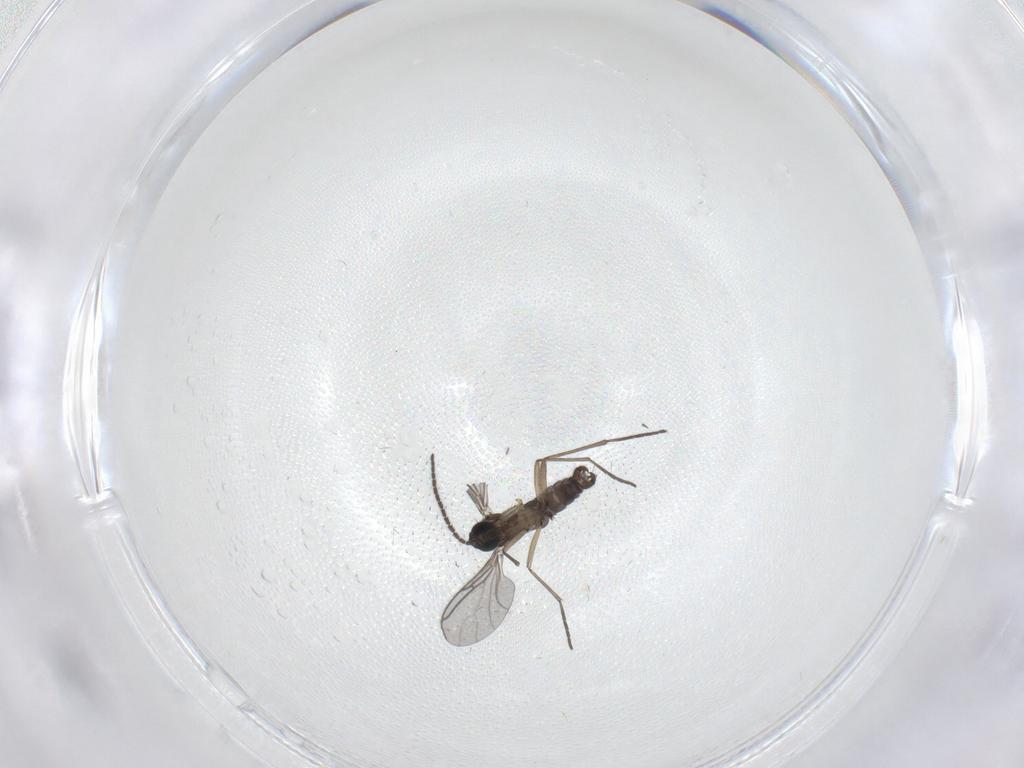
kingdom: Animalia
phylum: Arthropoda
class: Insecta
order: Diptera
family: Sciaridae
